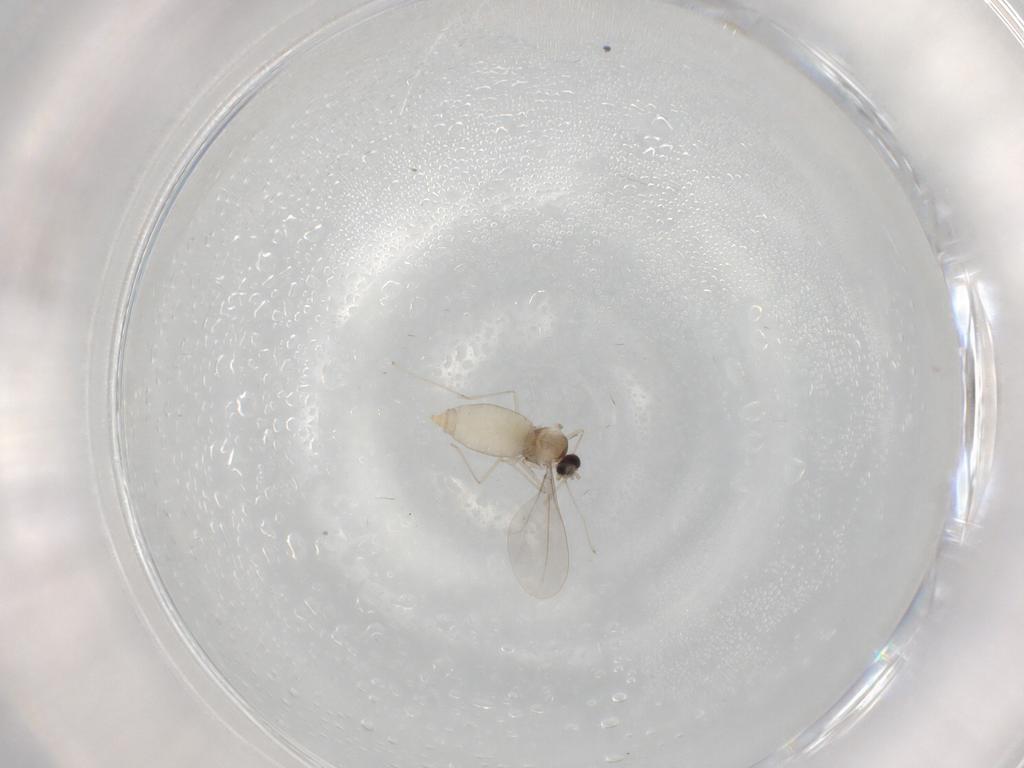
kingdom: Animalia
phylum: Arthropoda
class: Insecta
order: Diptera
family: Cecidomyiidae
